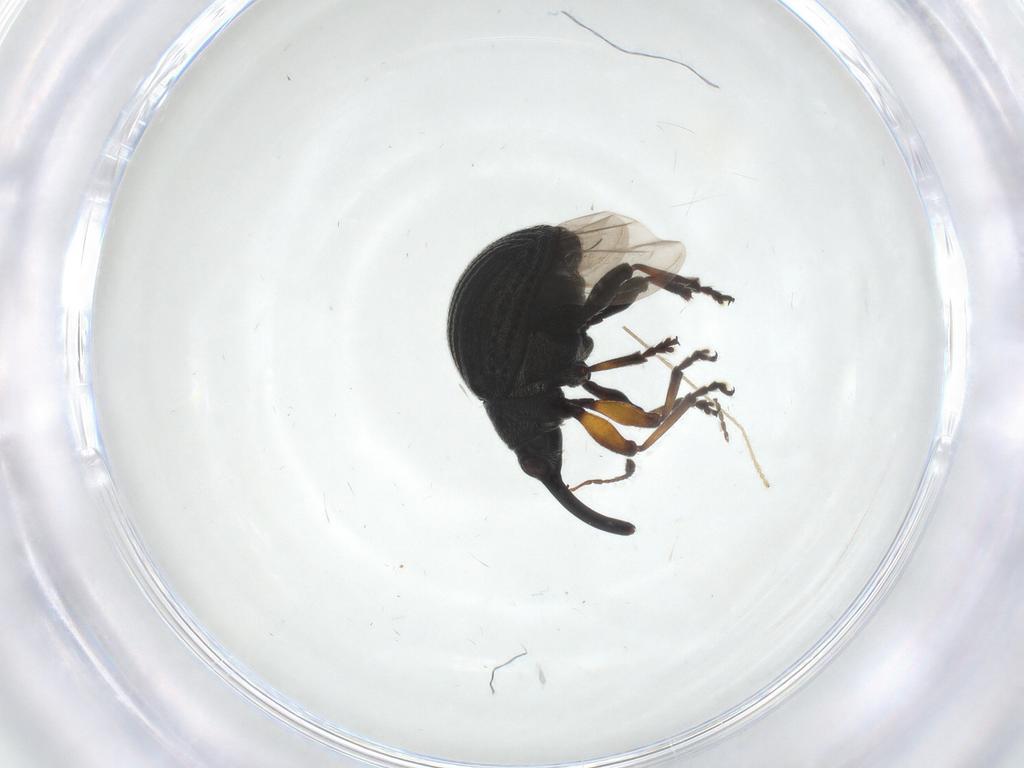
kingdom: Animalia
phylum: Arthropoda
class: Insecta
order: Coleoptera
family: Brentidae
